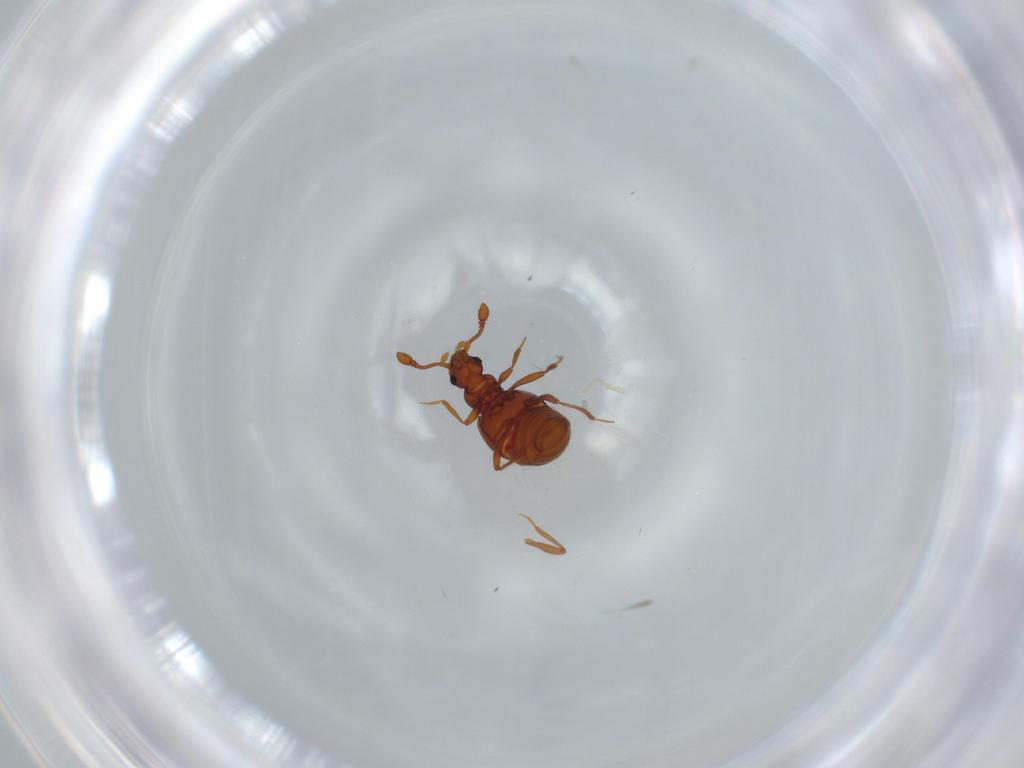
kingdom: Animalia
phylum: Arthropoda
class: Insecta
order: Coleoptera
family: Staphylinidae
